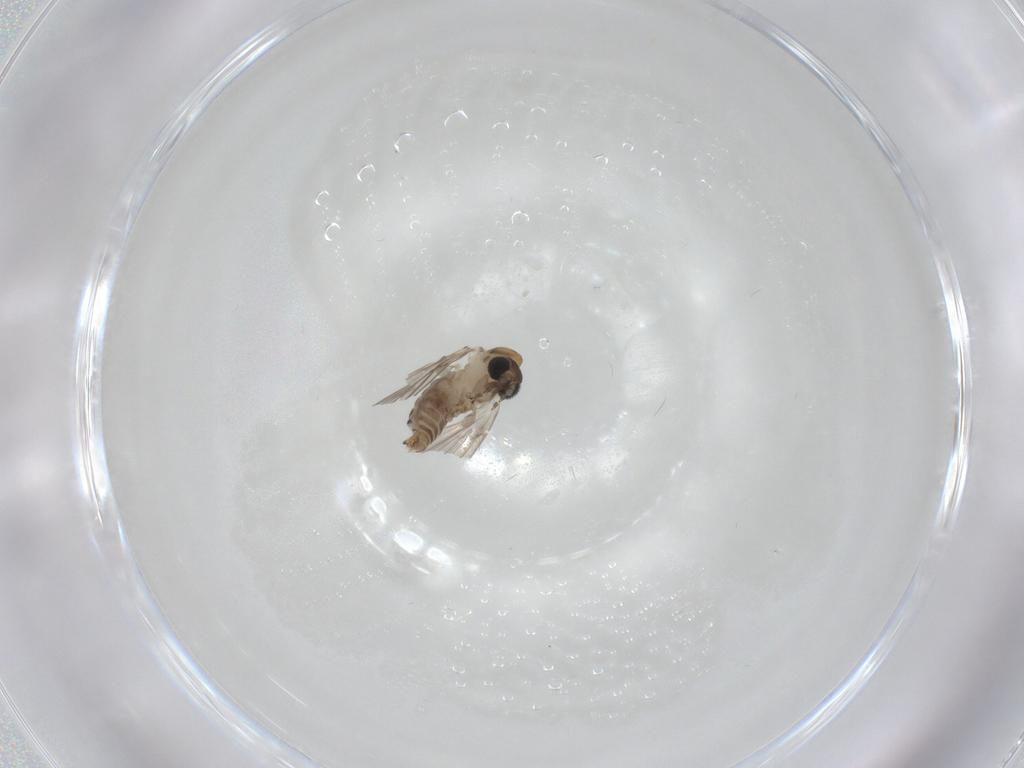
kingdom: Animalia
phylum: Arthropoda
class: Insecta
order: Diptera
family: Psychodidae
